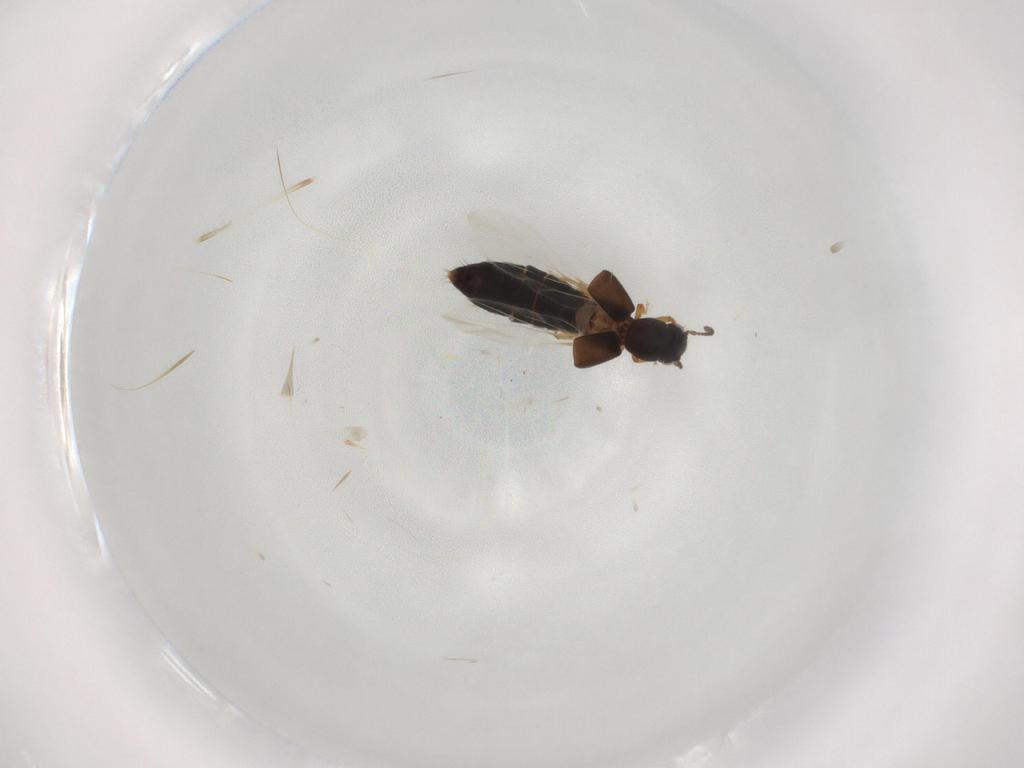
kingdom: Animalia
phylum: Arthropoda
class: Insecta
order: Coleoptera
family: Staphylinidae
